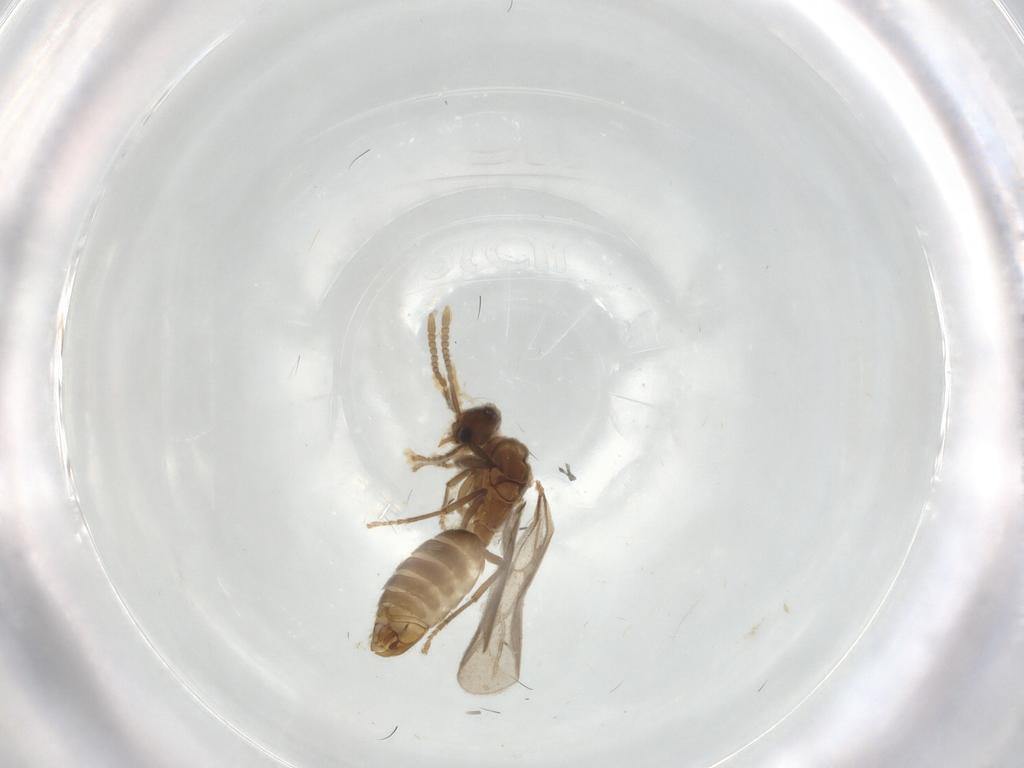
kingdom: Animalia
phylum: Arthropoda
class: Insecta
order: Hymenoptera
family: Formicidae
